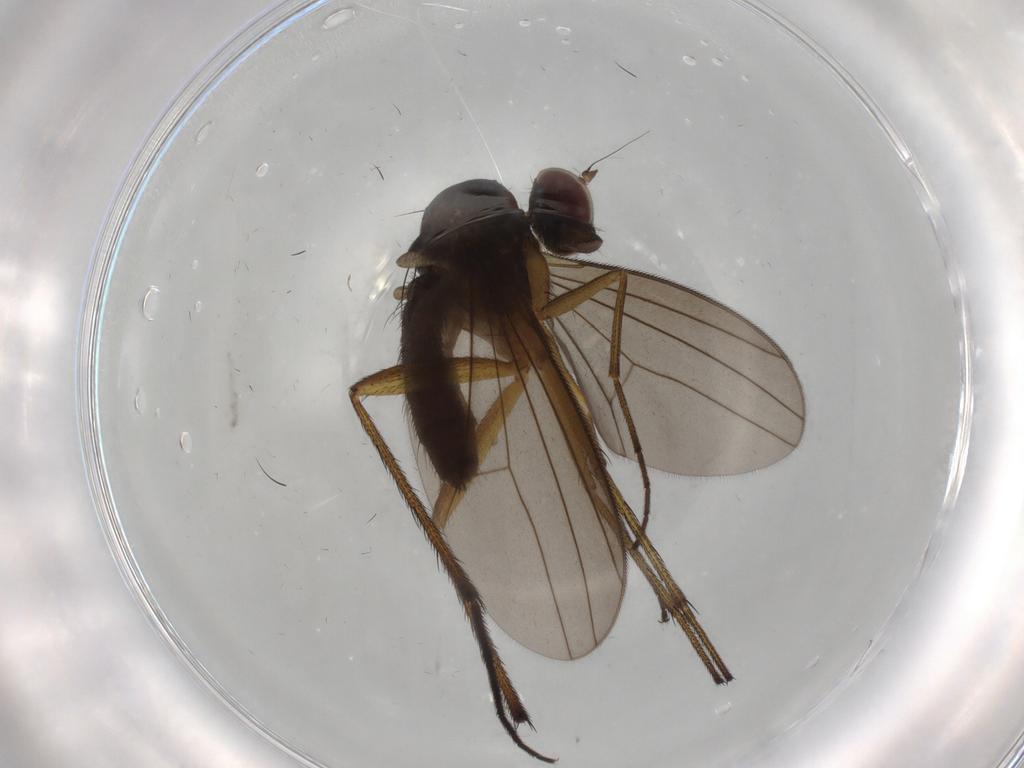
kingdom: Animalia
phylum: Arthropoda
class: Insecta
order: Diptera
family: Dolichopodidae
